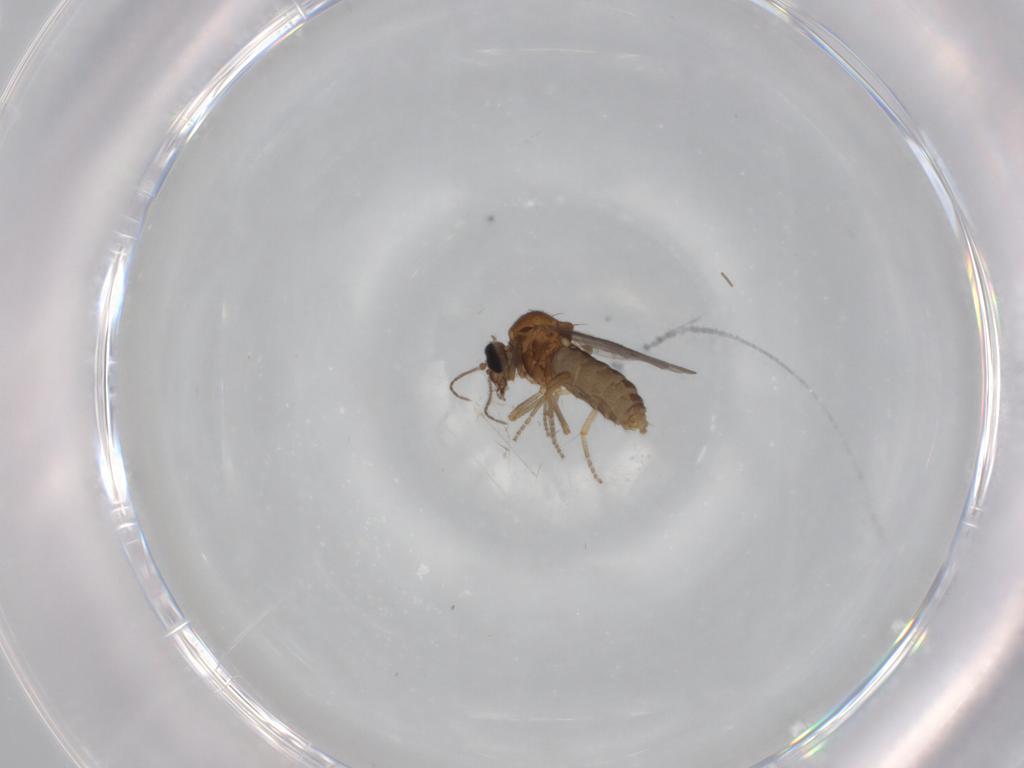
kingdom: Animalia
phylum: Arthropoda
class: Insecta
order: Diptera
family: Ceratopogonidae
